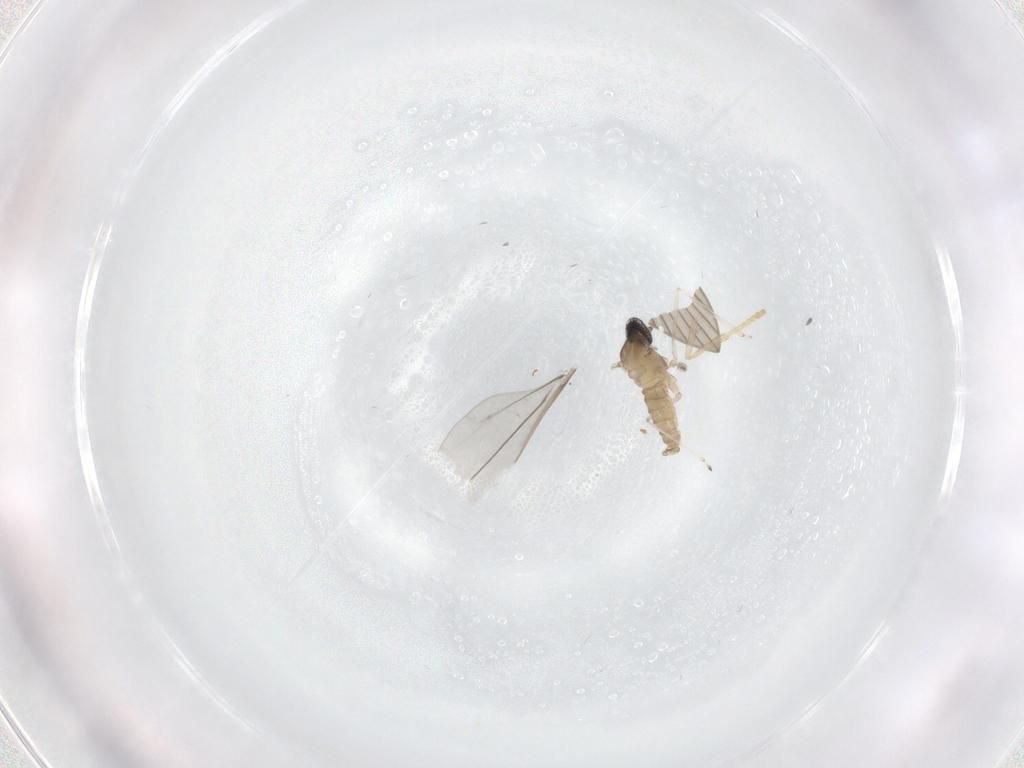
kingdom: Animalia
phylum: Arthropoda
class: Insecta
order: Diptera
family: Cecidomyiidae
